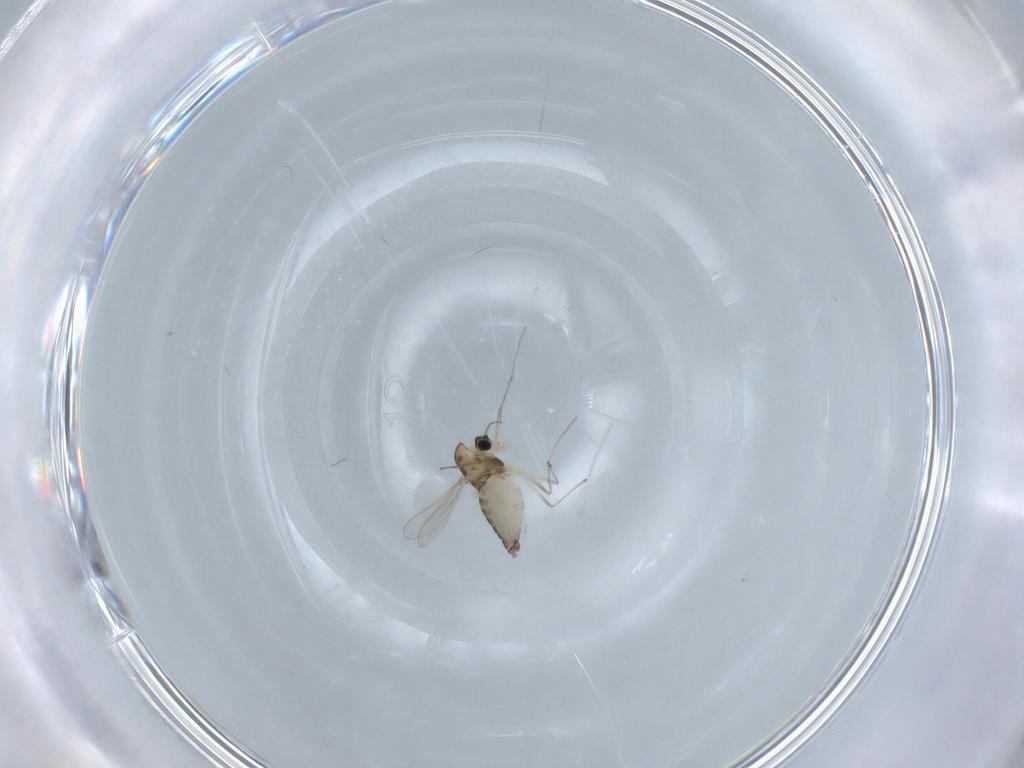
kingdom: Animalia
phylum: Arthropoda
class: Insecta
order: Diptera
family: Chironomidae
